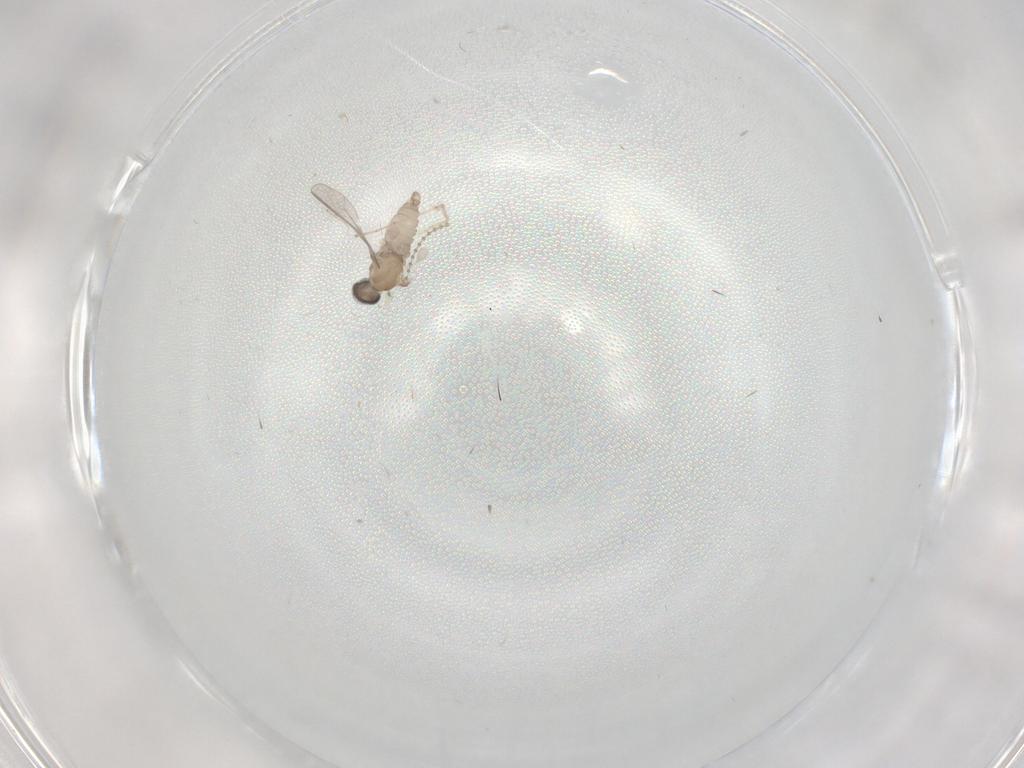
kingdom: Animalia
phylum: Arthropoda
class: Insecta
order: Diptera
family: Cecidomyiidae
